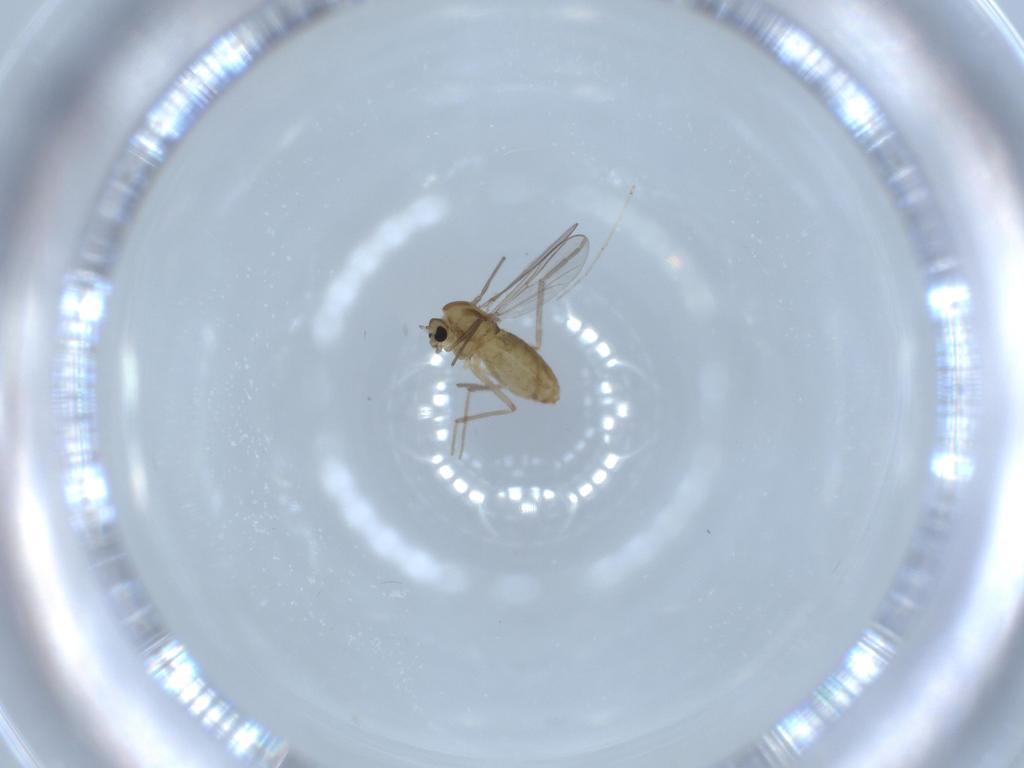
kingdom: Animalia
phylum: Arthropoda
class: Insecta
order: Diptera
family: Chironomidae
